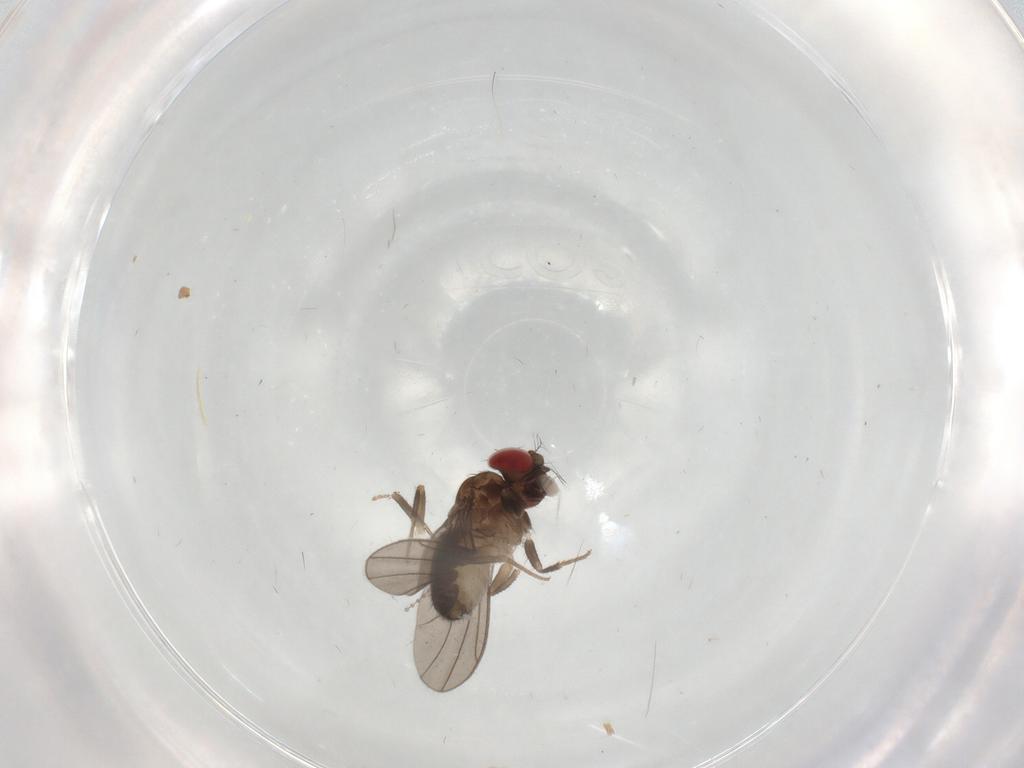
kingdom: Animalia
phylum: Arthropoda
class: Insecta
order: Diptera
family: Drosophilidae
